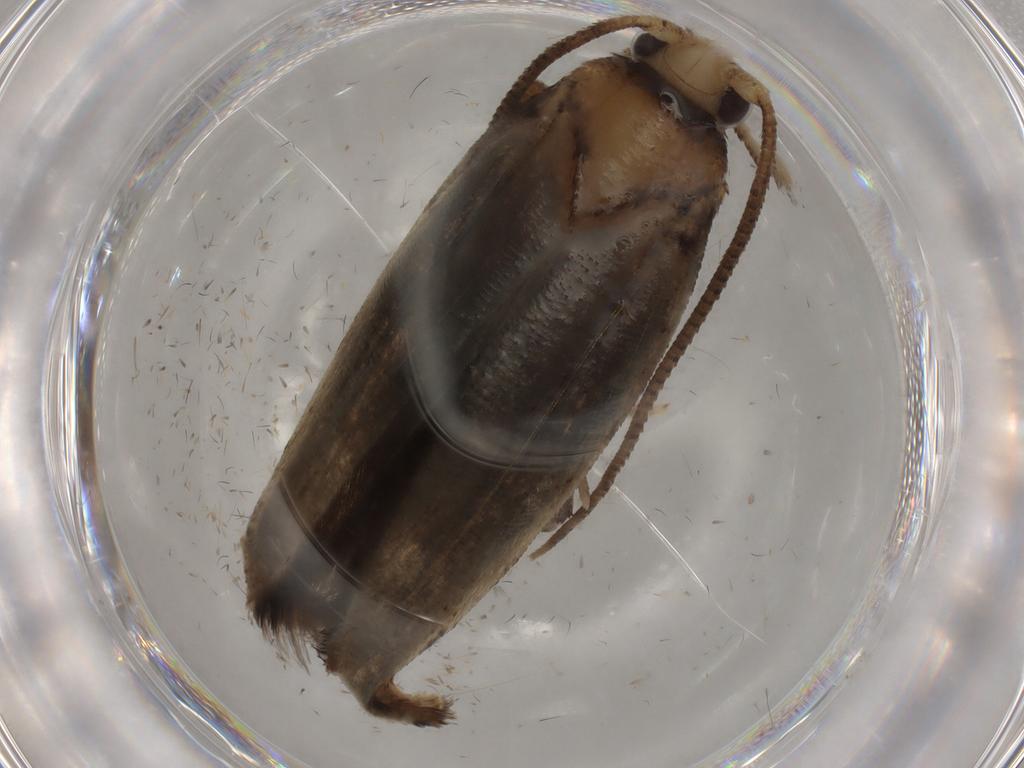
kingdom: Animalia
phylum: Arthropoda
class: Insecta
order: Lepidoptera
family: Yponomeutidae
